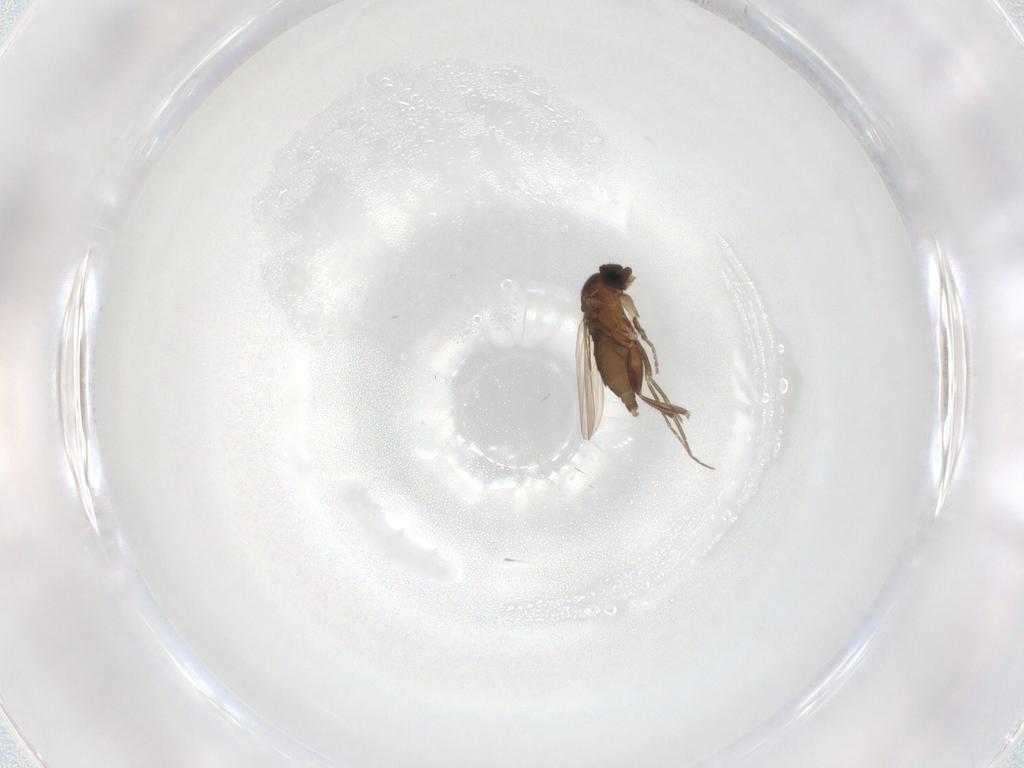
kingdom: Animalia
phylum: Arthropoda
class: Insecta
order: Diptera
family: Phoridae
